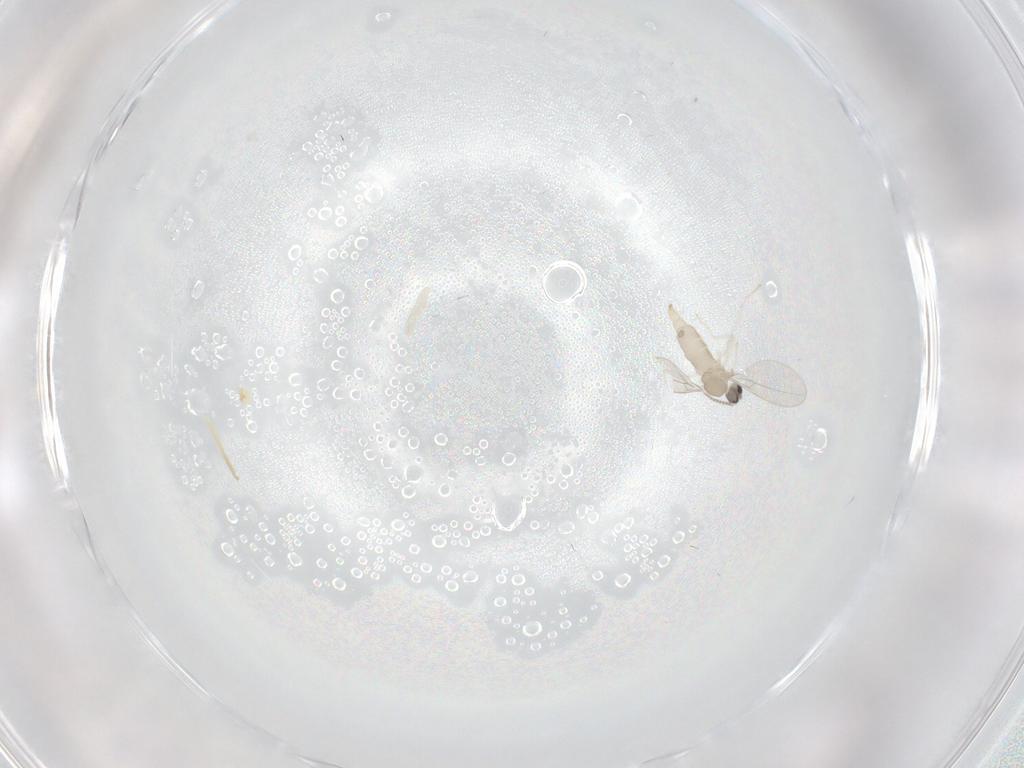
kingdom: Animalia
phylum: Arthropoda
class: Insecta
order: Diptera
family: Cecidomyiidae
